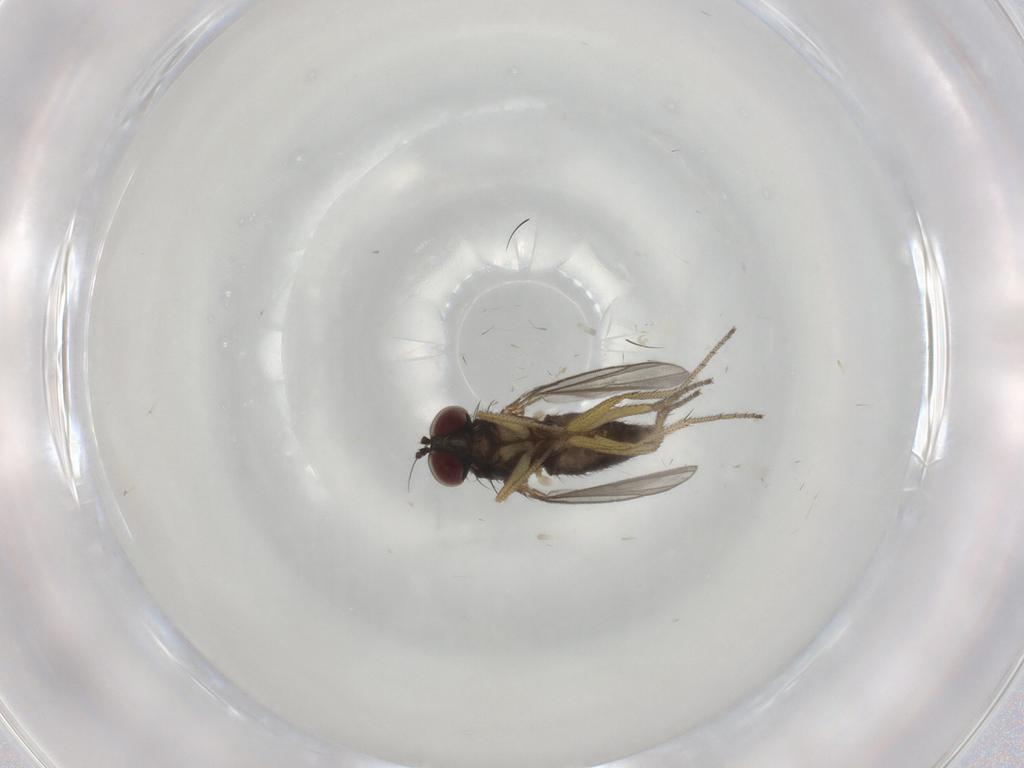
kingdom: Animalia
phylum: Arthropoda
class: Insecta
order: Diptera
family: Dolichopodidae
